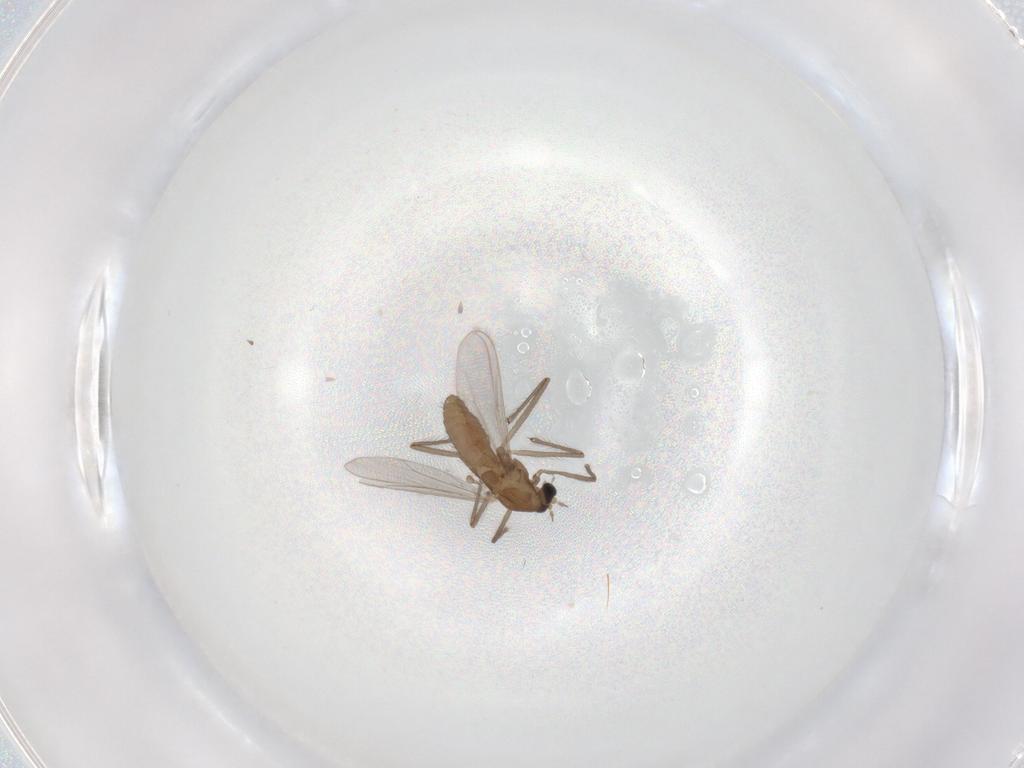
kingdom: Animalia
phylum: Arthropoda
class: Insecta
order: Diptera
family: Chironomidae
